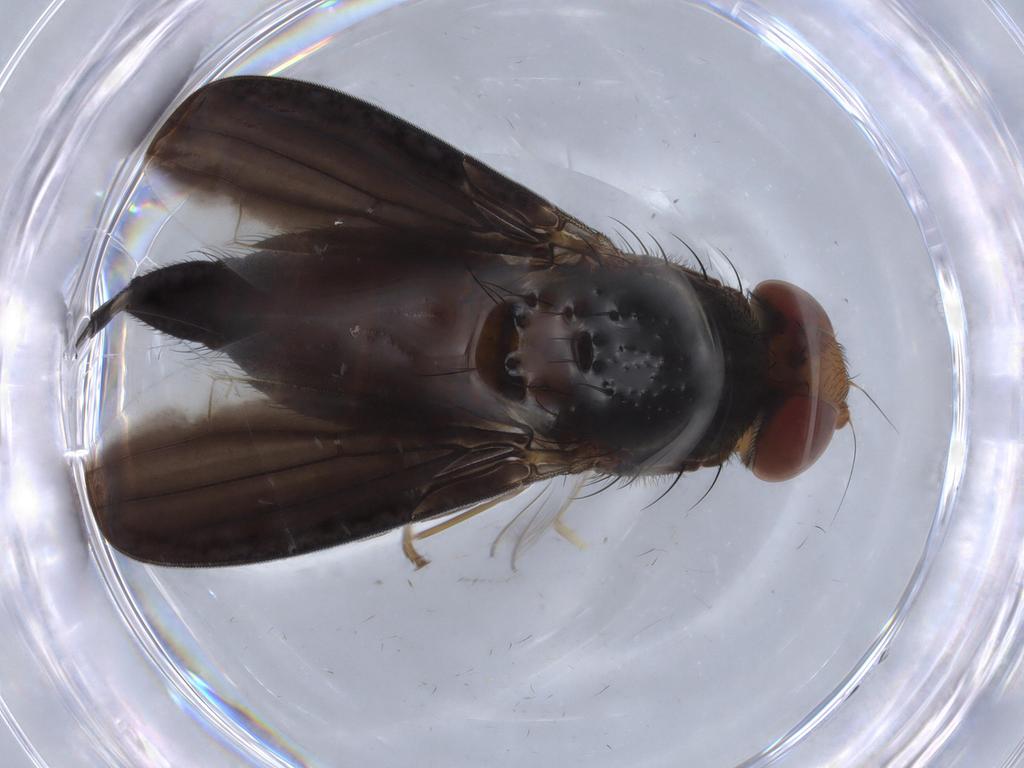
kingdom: Animalia
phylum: Arthropoda
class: Insecta
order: Diptera
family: Ulidiidae
